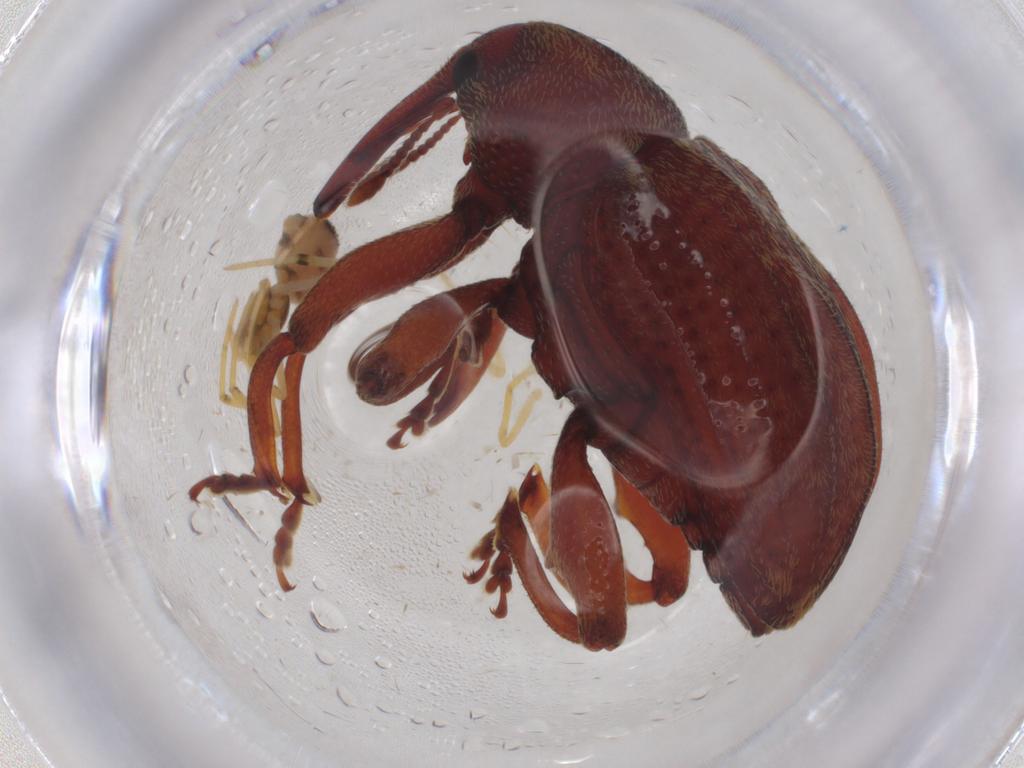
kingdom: Animalia
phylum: Arthropoda
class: Insecta
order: Coleoptera
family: Curculionidae
